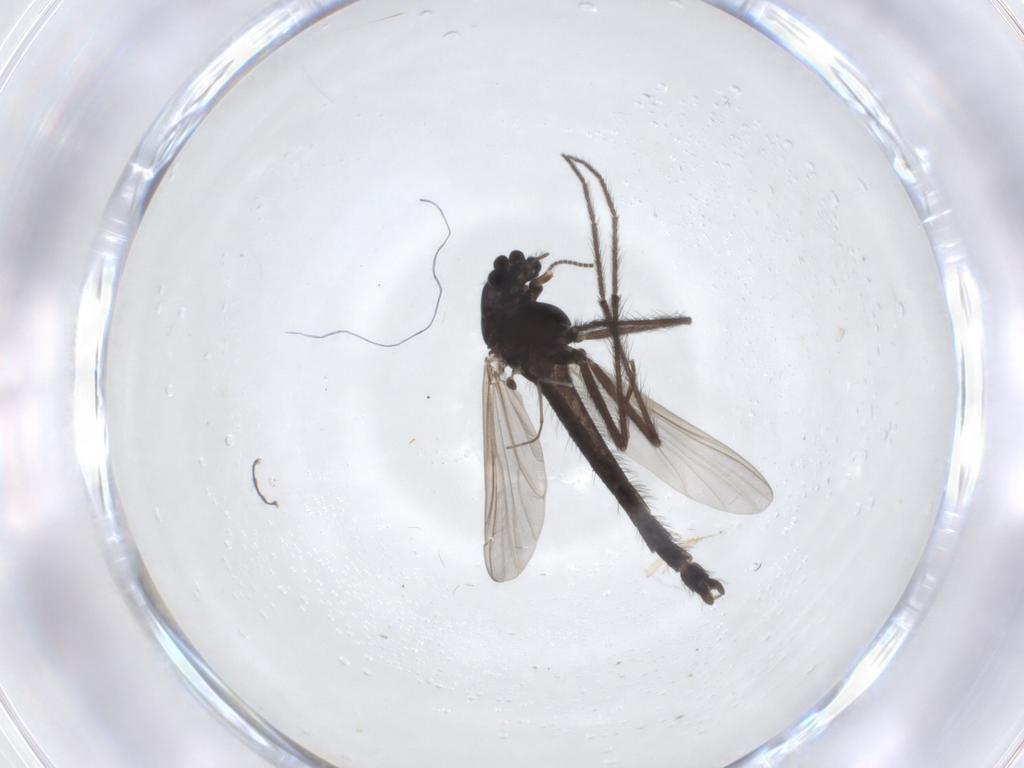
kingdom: Animalia
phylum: Arthropoda
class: Insecta
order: Diptera
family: Chironomidae
